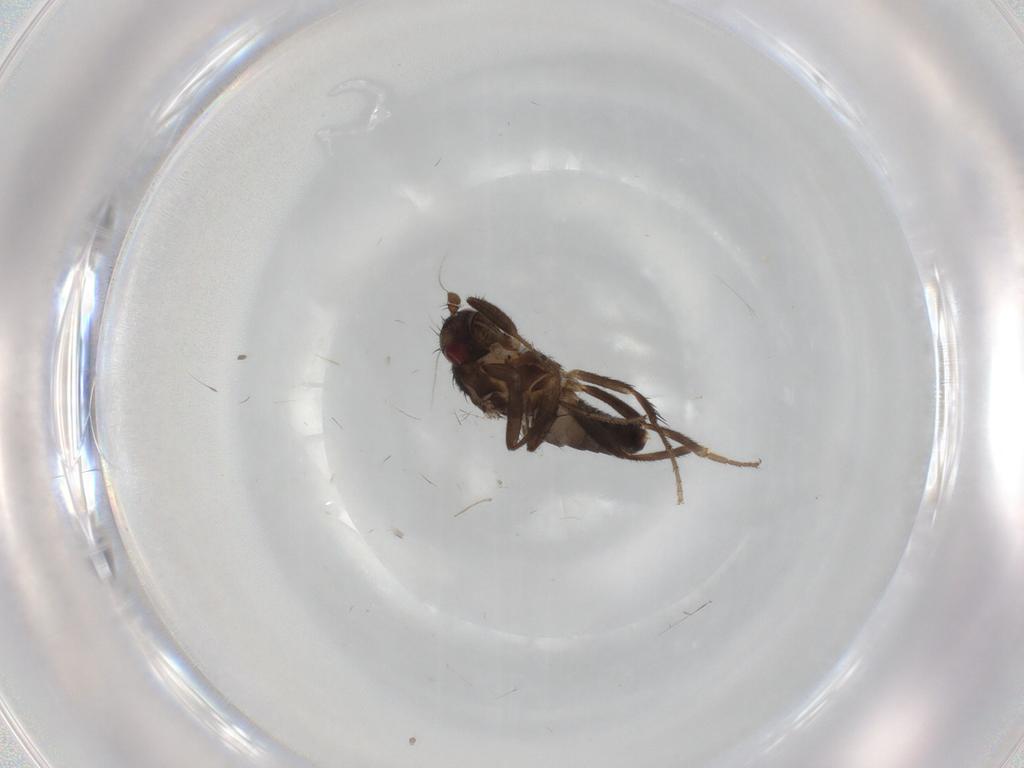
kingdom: Animalia
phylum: Arthropoda
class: Insecta
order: Diptera
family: Sphaeroceridae
